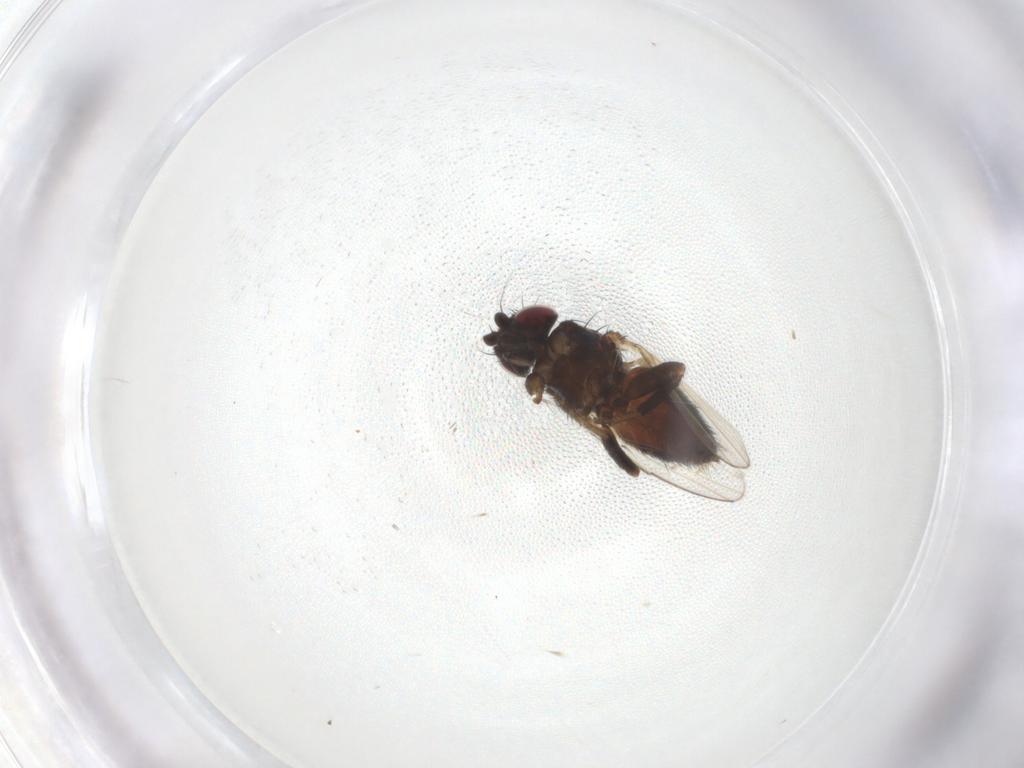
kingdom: Animalia
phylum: Arthropoda
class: Insecta
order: Diptera
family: Milichiidae
